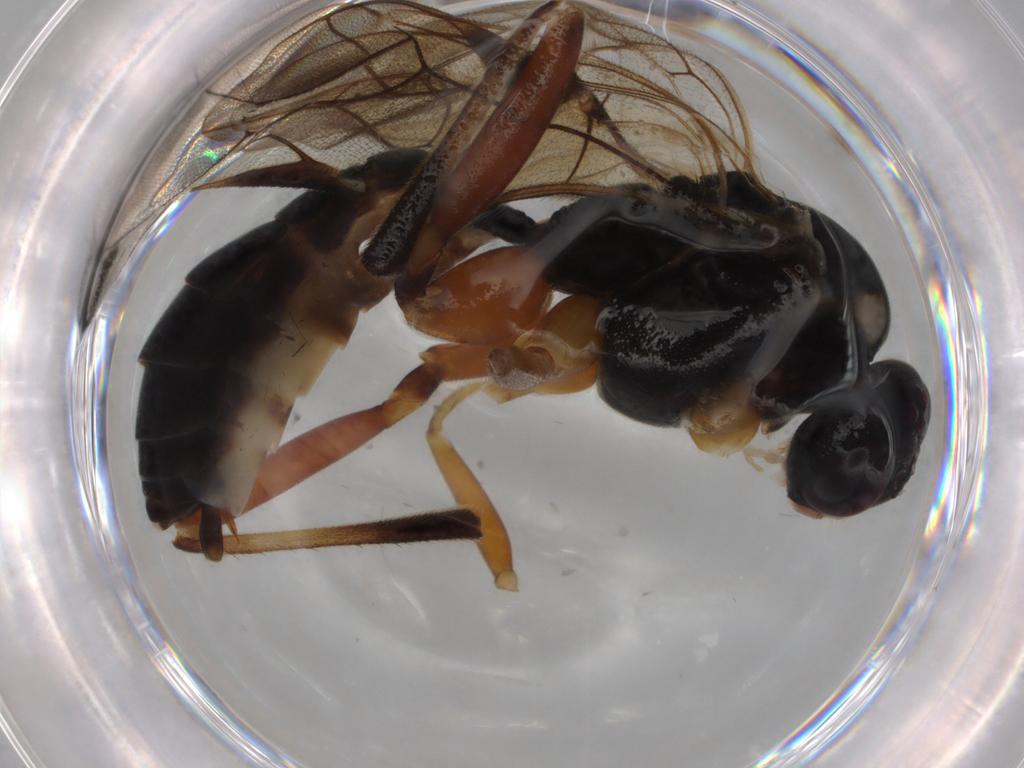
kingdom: Animalia
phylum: Arthropoda
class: Insecta
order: Hymenoptera
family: Ichneumonidae
